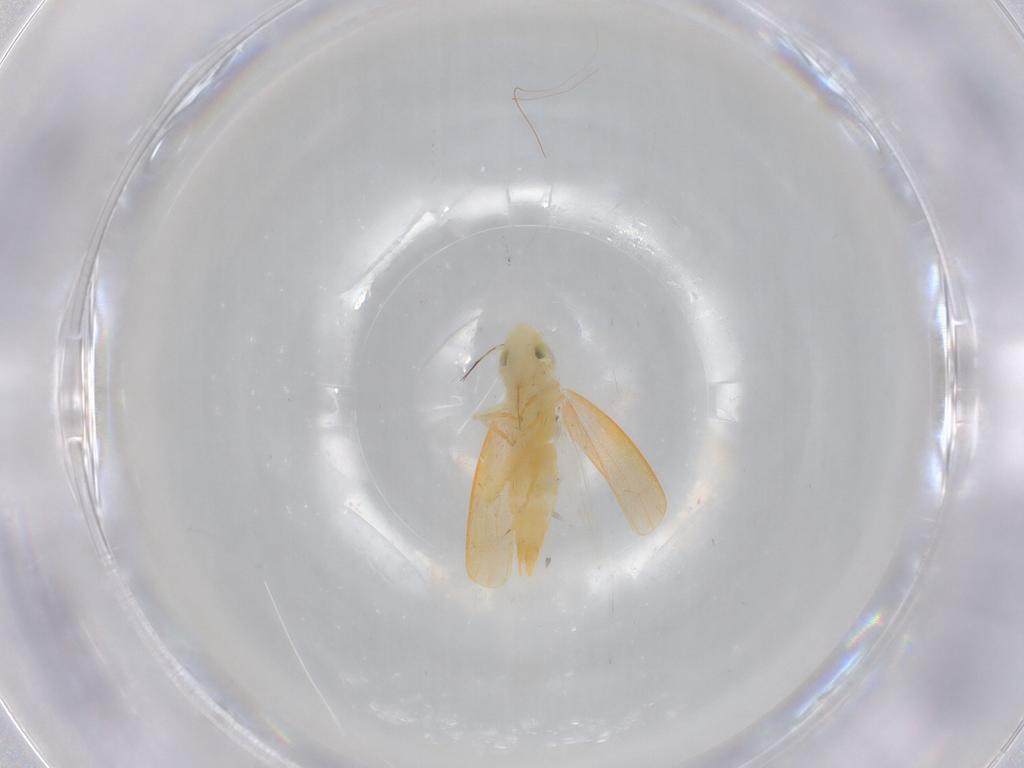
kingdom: Animalia
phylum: Arthropoda
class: Insecta
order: Hemiptera
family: Cicadellidae
